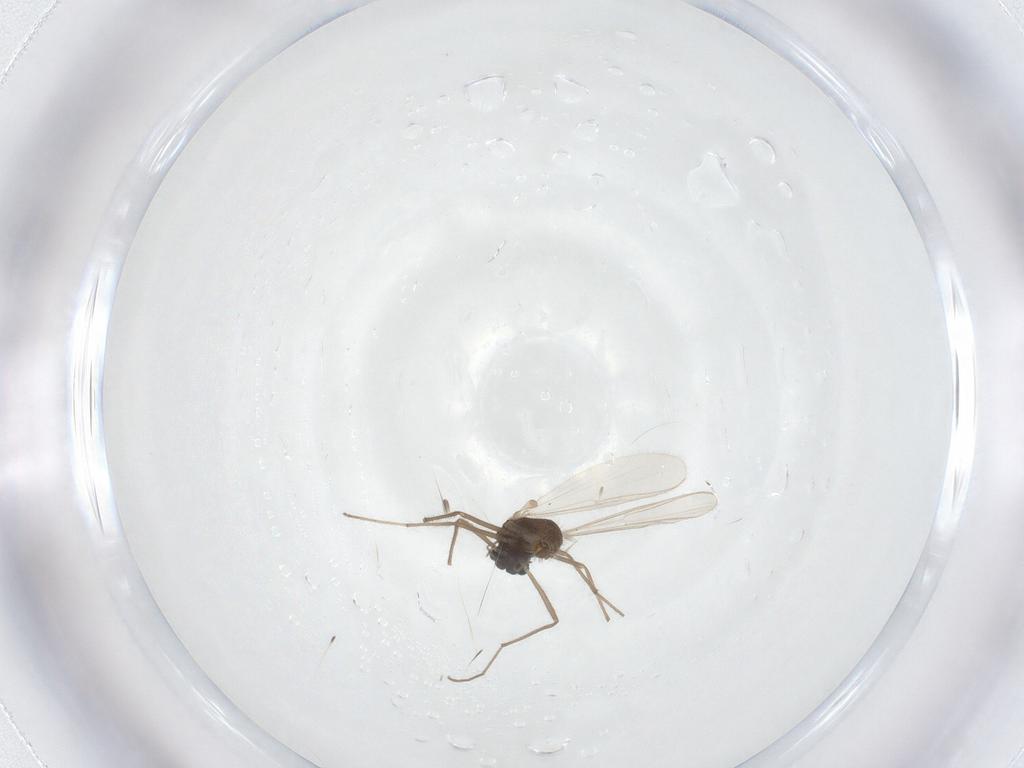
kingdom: Animalia
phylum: Arthropoda
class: Insecta
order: Diptera
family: Chironomidae
